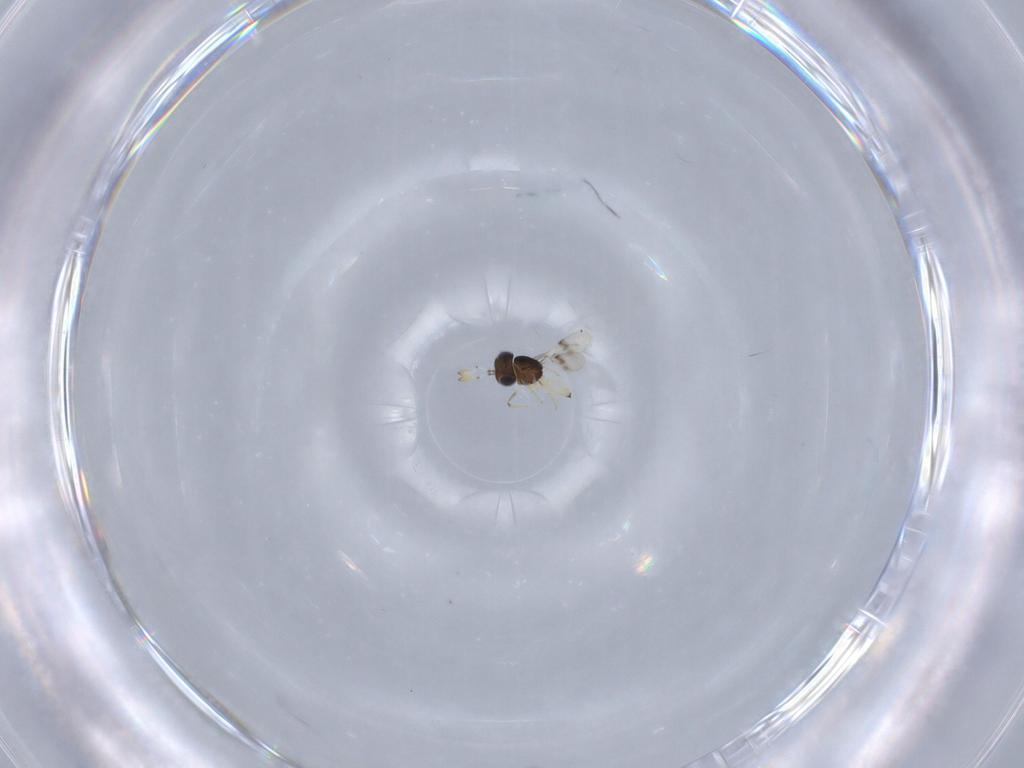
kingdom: Animalia
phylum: Arthropoda
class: Insecta
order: Hymenoptera
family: Scelionidae
